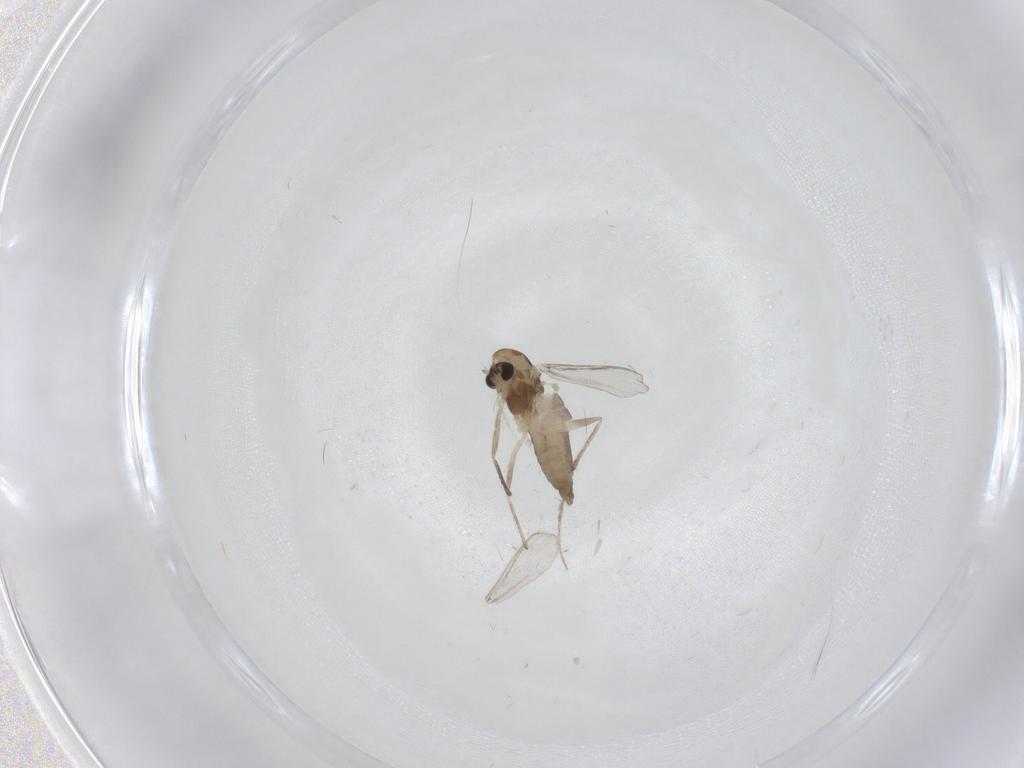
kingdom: Animalia
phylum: Arthropoda
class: Insecta
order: Diptera
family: Chironomidae
